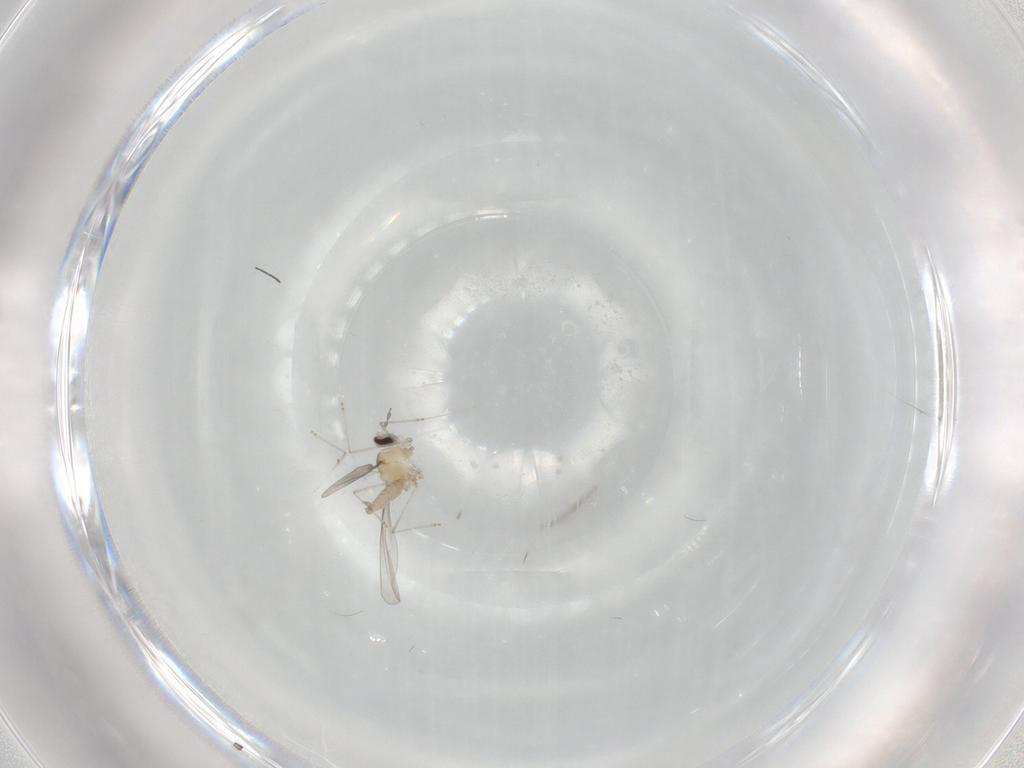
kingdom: Animalia
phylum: Arthropoda
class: Insecta
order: Diptera
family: Cecidomyiidae
